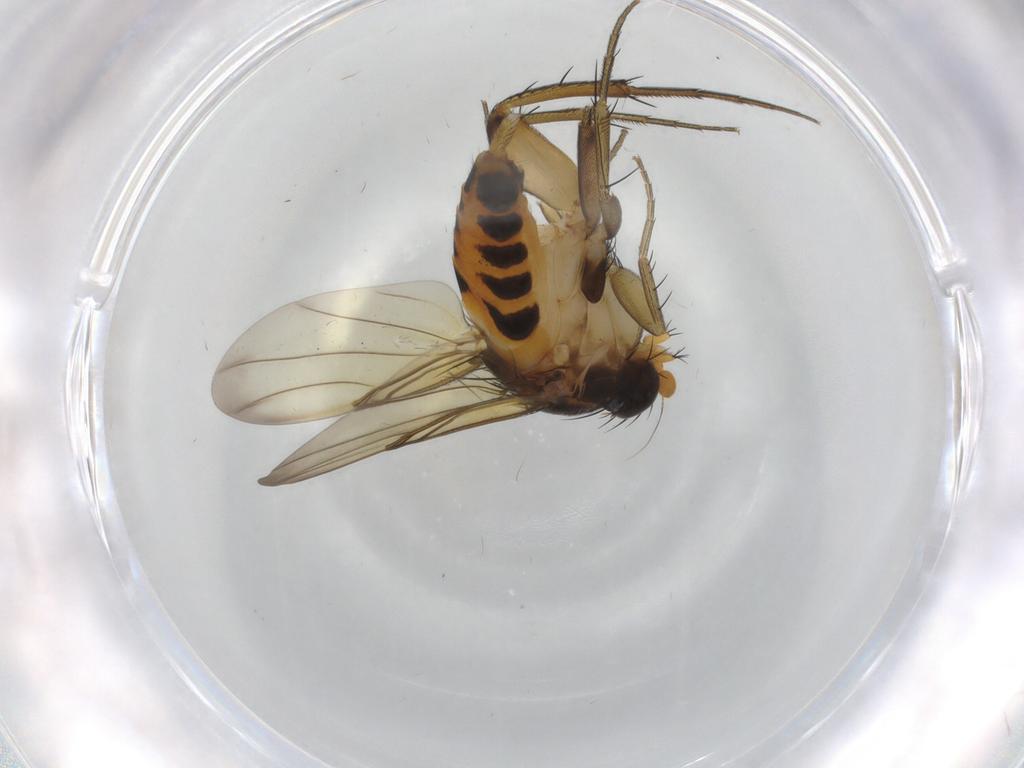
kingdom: Animalia
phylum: Arthropoda
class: Insecta
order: Diptera
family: Phoridae
